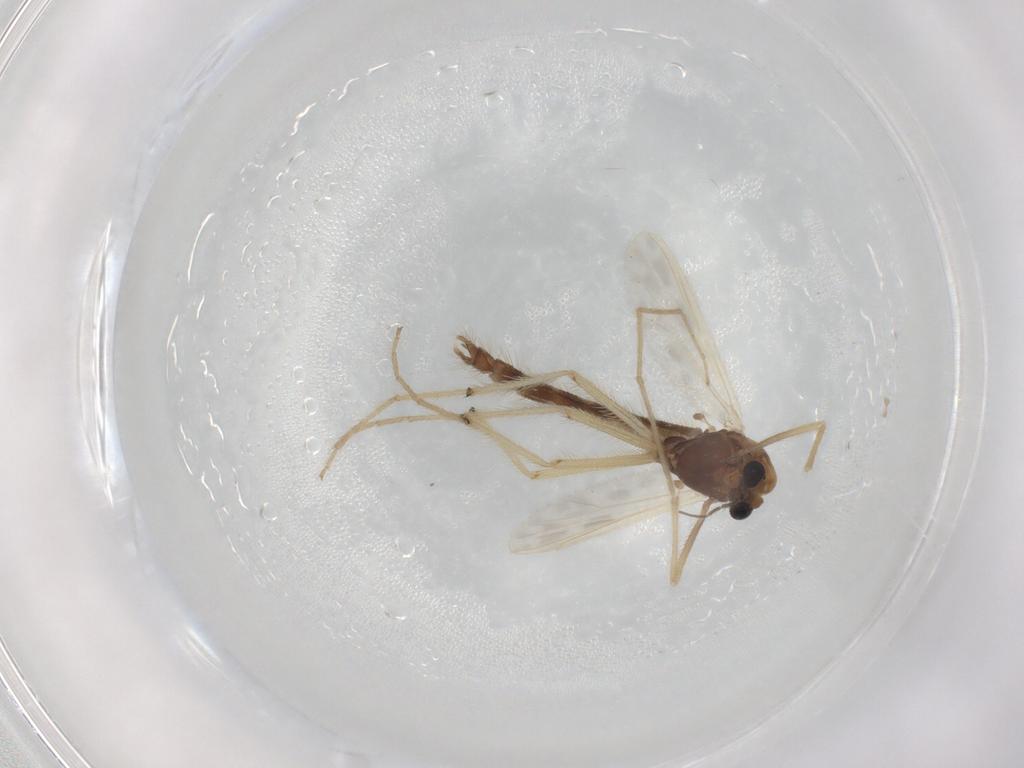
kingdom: Animalia
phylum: Arthropoda
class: Insecta
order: Diptera
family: Chironomidae
